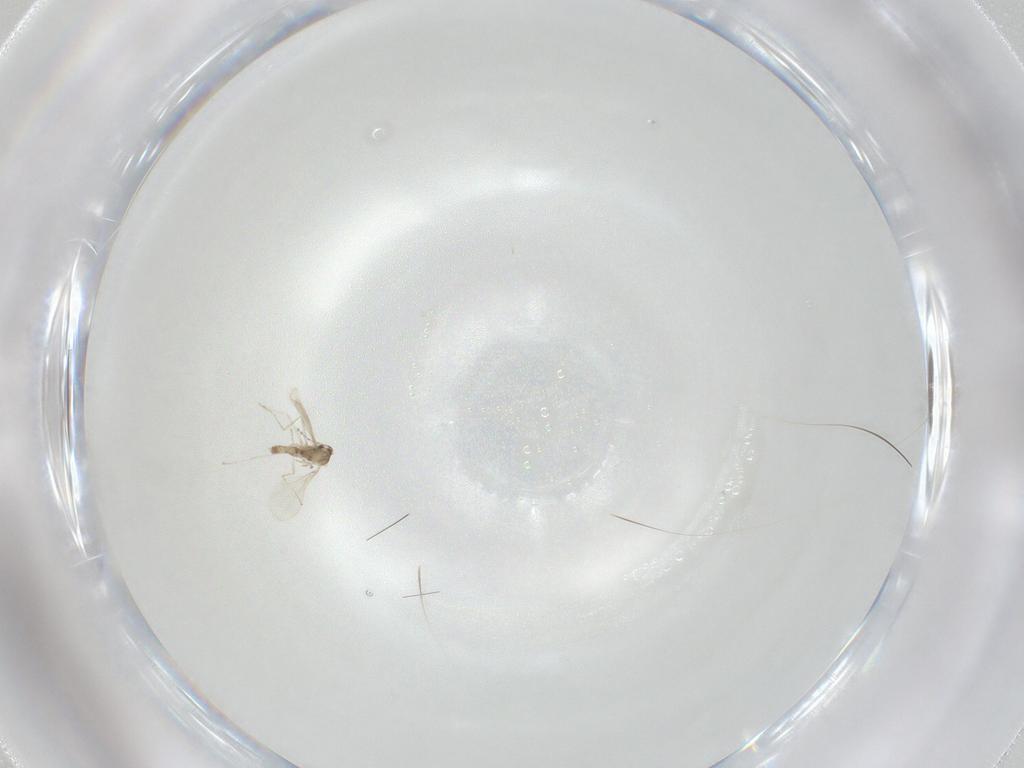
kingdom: Animalia
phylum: Arthropoda
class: Insecta
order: Diptera
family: Cecidomyiidae
